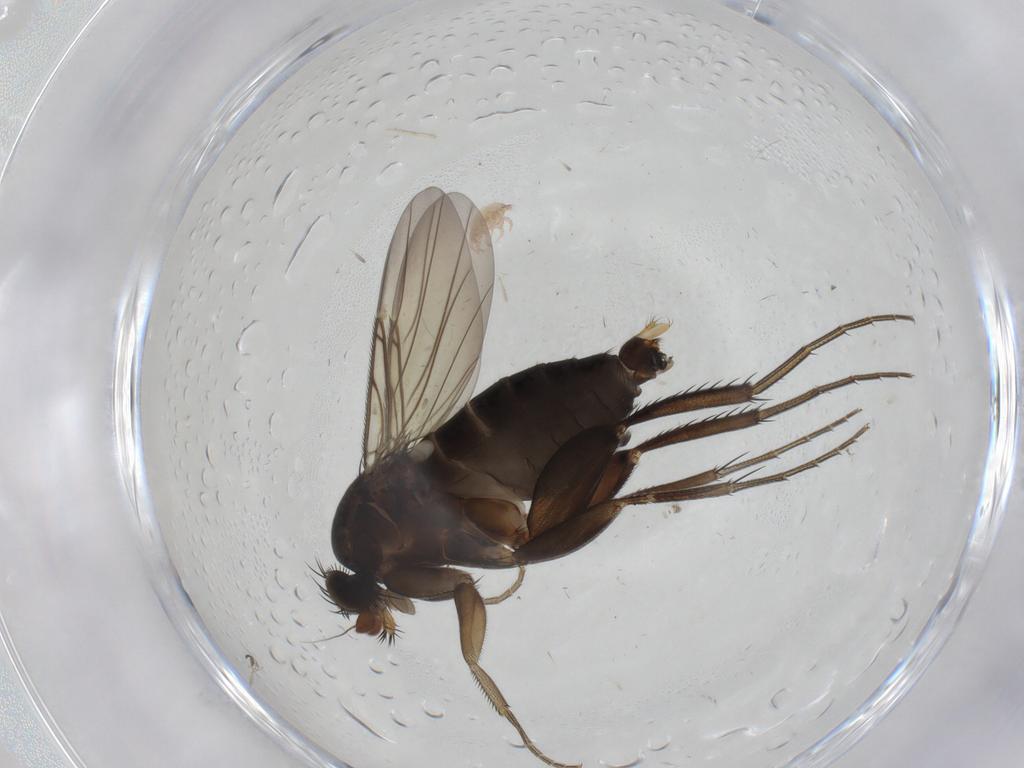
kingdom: Animalia
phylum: Arthropoda
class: Insecta
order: Diptera
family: Phoridae
